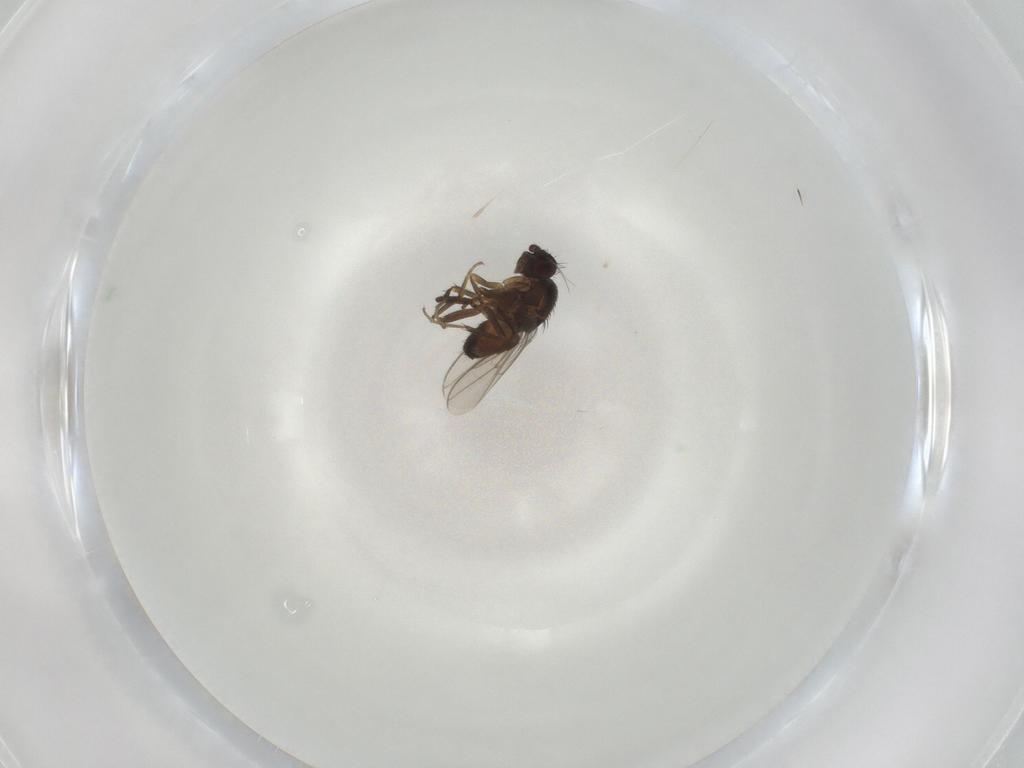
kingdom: Animalia
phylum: Arthropoda
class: Insecta
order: Diptera
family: Sphaeroceridae
